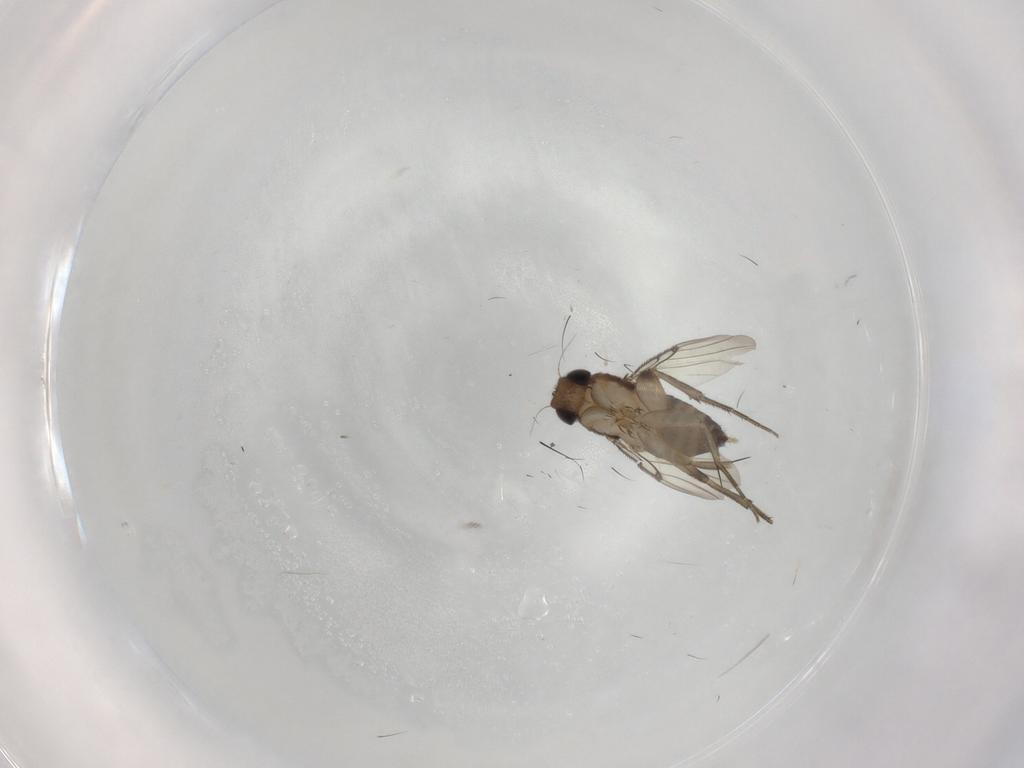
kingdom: Animalia
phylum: Arthropoda
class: Insecta
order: Diptera
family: Phoridae
